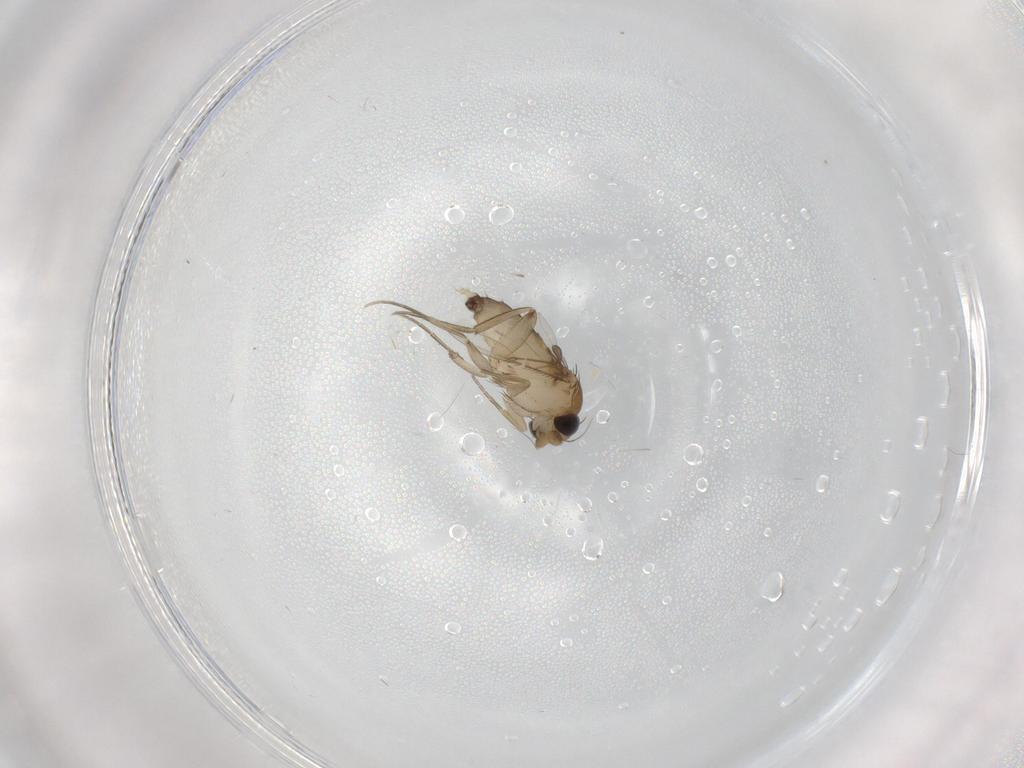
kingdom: Animalia
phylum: Arthropoda
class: Insecta
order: Diptera
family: Phoridae
